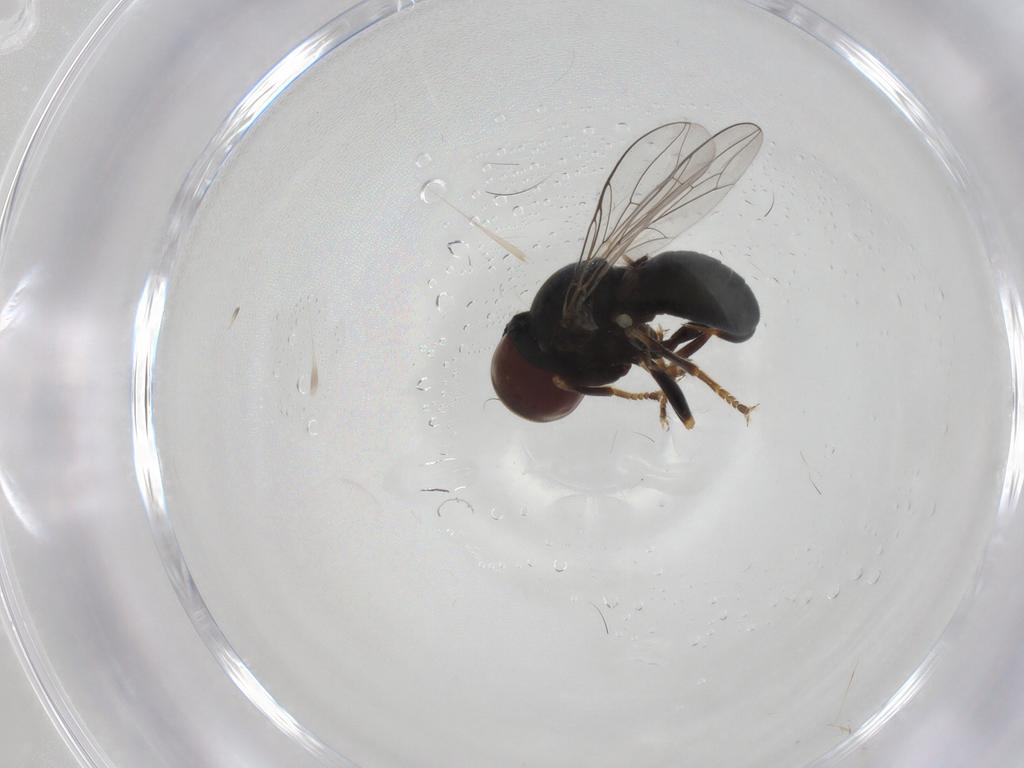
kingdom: Animalia
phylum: Arthropoda
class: Insecta
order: Diptera
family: Pipunculidae
